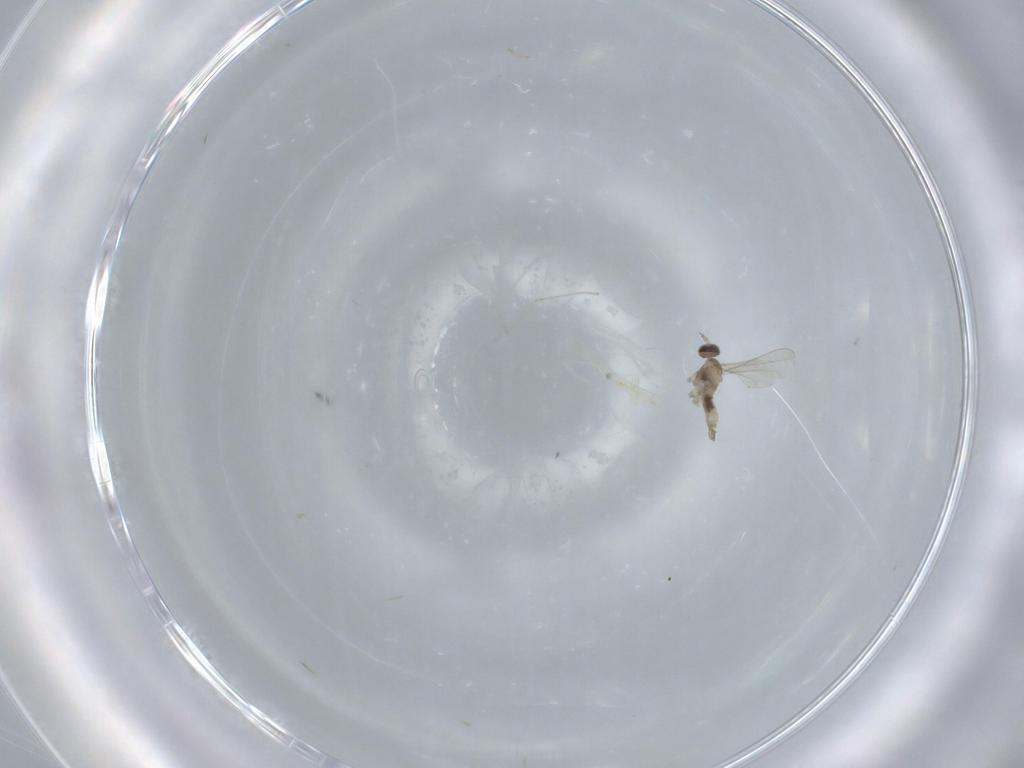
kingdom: Animalia
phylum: Arthropoda
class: Insecta
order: Diptera
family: Cecidomyiidae
